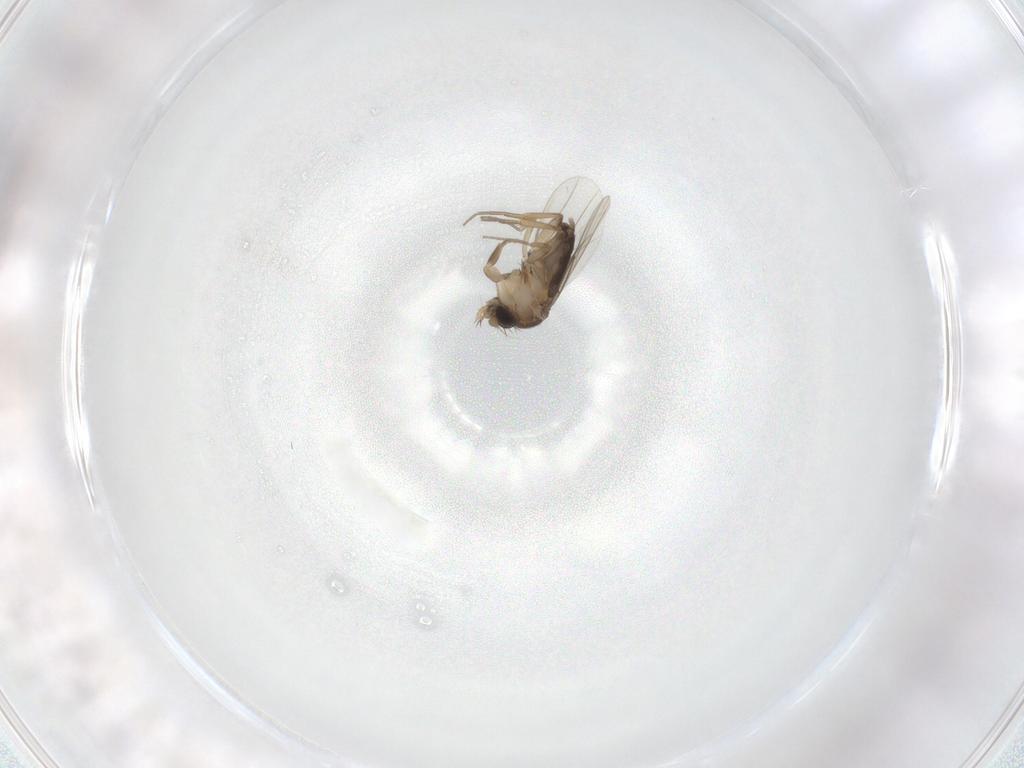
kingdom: Animalia
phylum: Arthropoda
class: Insecta
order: Diptera
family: Phoridae
